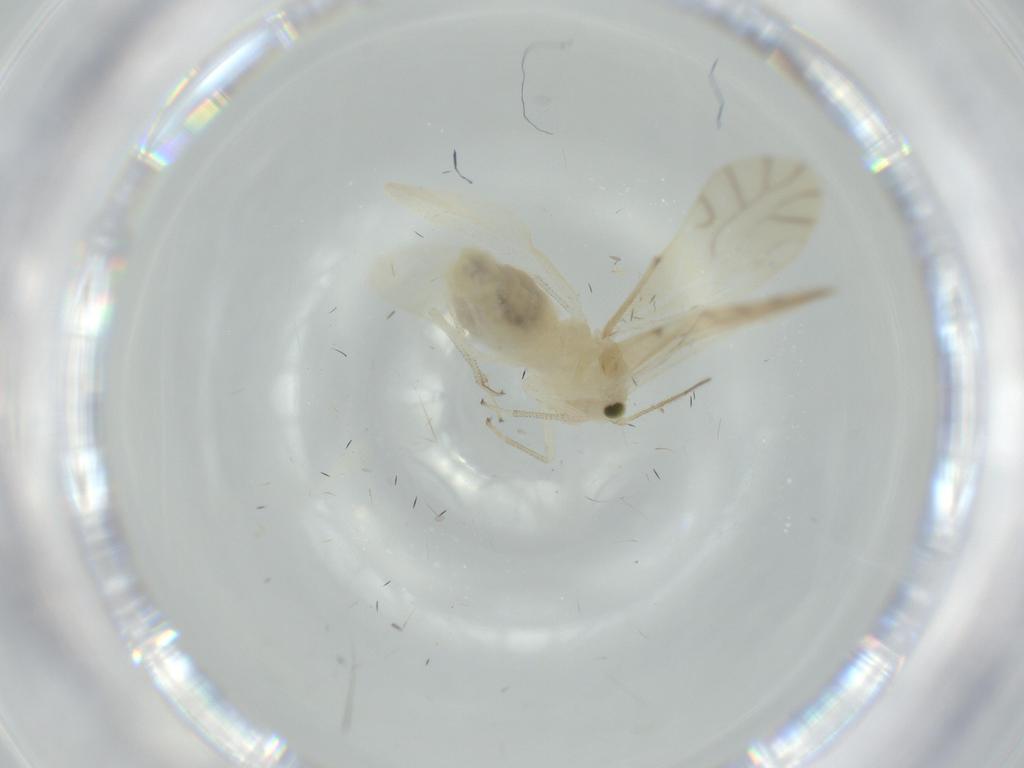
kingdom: Animalia
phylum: Arthropoda
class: Insecta
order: Psocodea
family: Caeciliusidae
